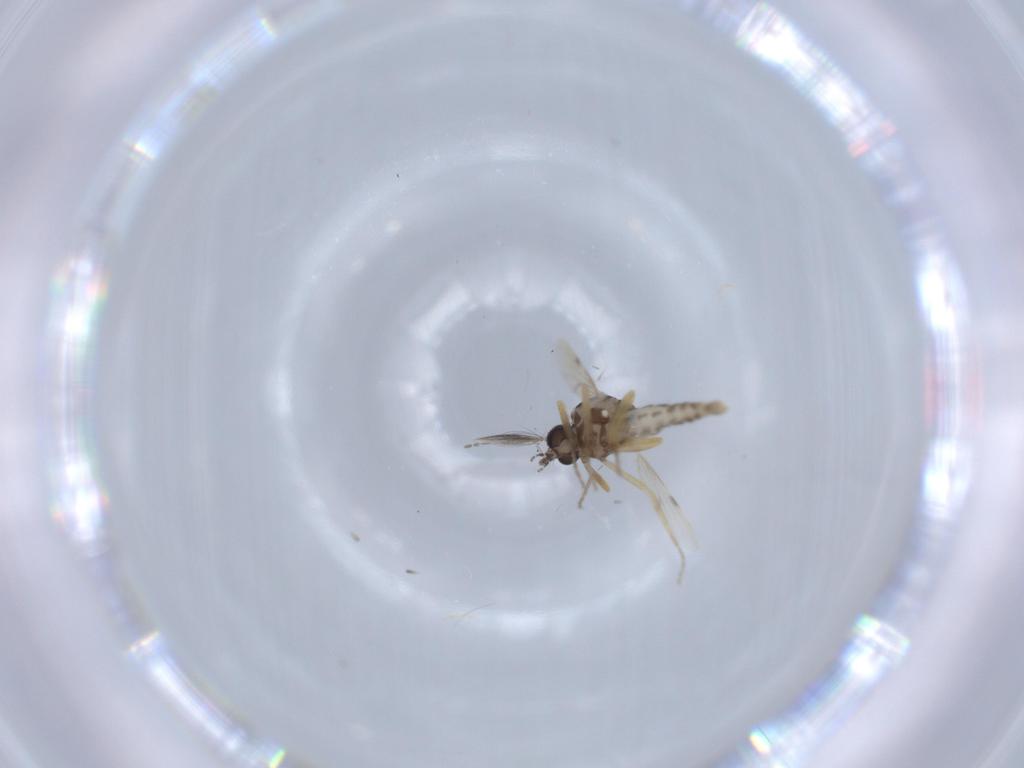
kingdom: Animalia
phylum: Arthropoda
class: Insecta
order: Diptera
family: Ceratopogonidae
